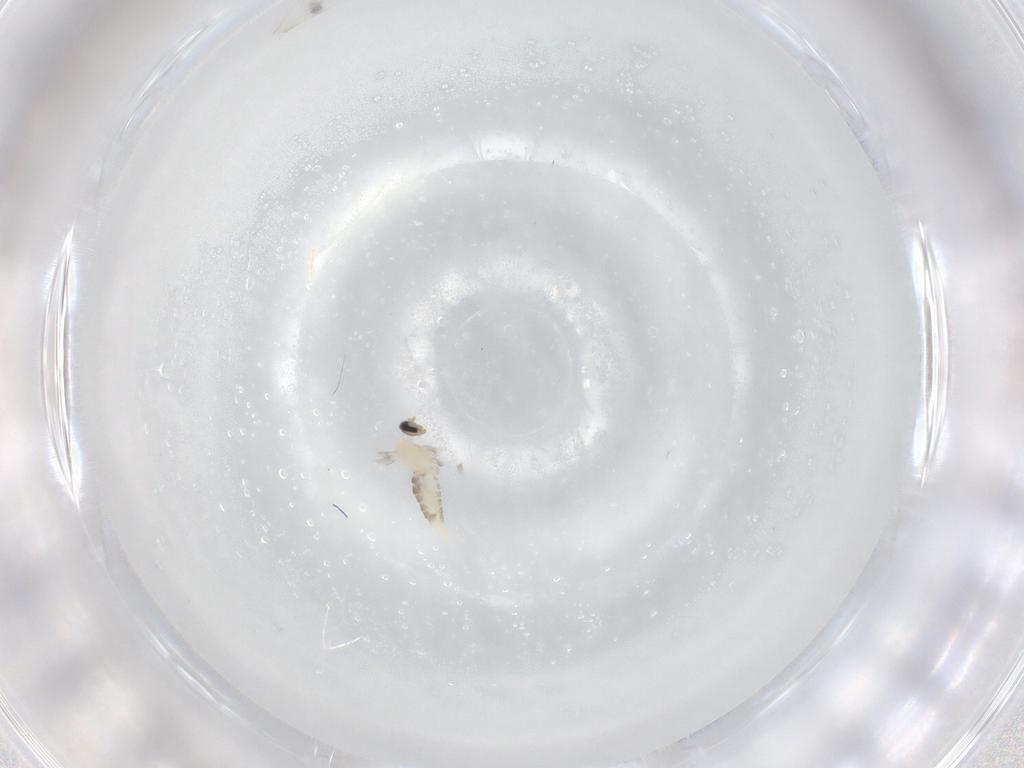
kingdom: Animalia
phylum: Arthropoda
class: Insecta
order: Diptera
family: Cecidomyiidae
